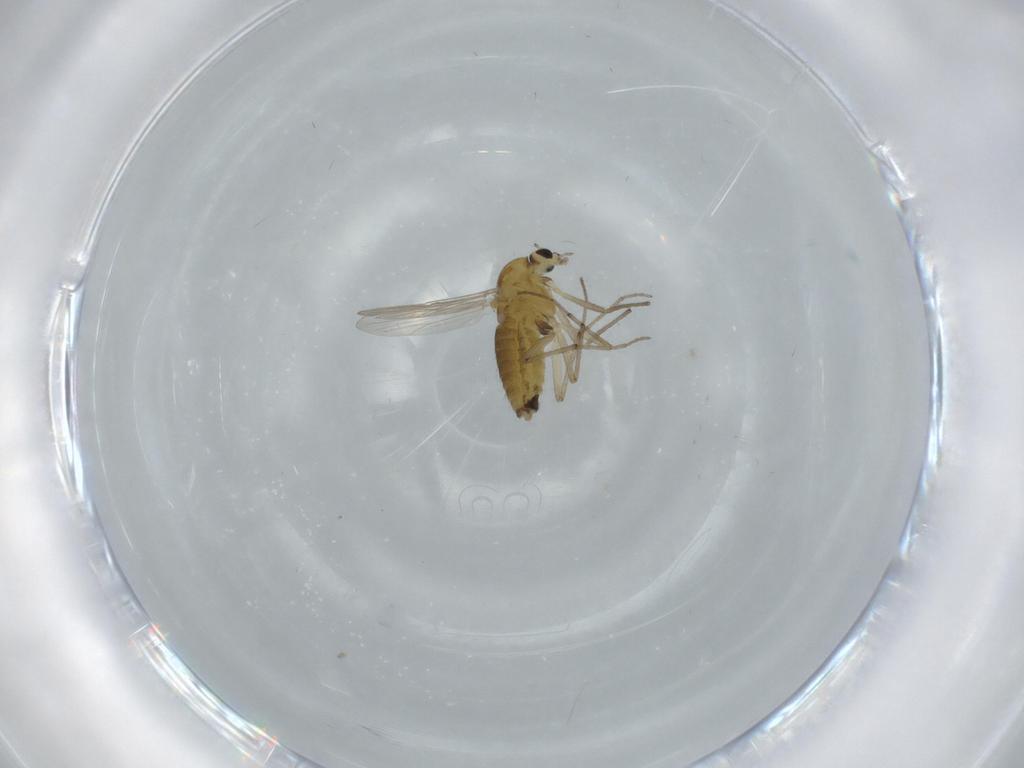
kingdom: Animalia
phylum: Arthropoda
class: Insecta
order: Diptera
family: Chironomidae
